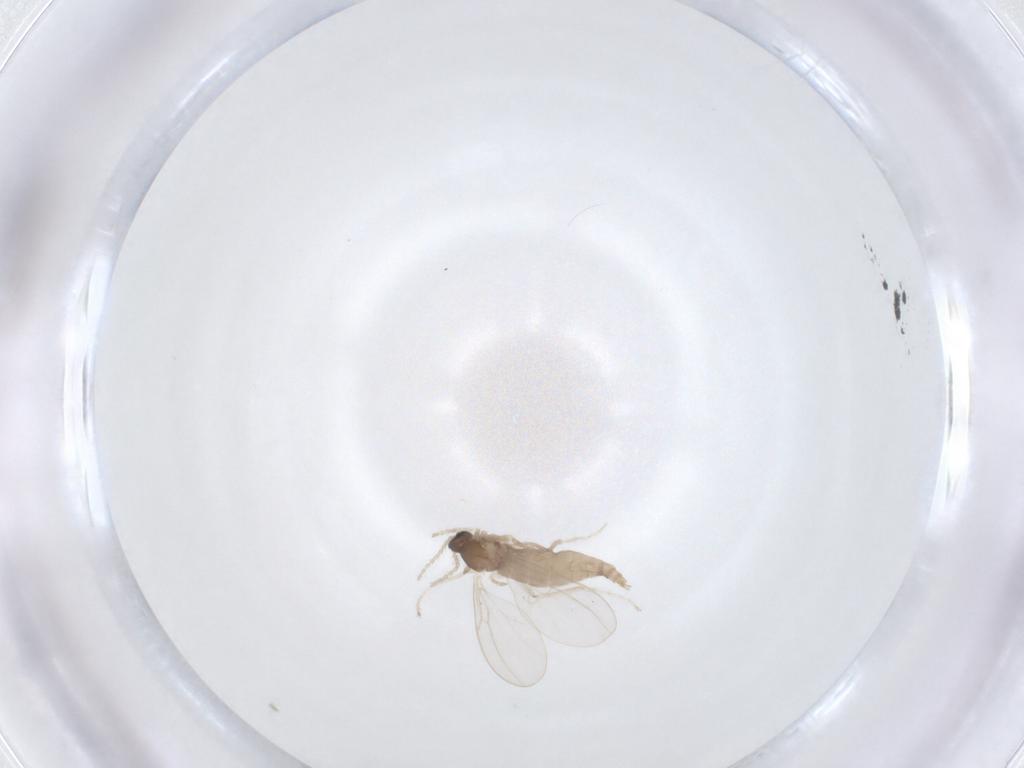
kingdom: Animalia
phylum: Arthropoda
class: Insecta
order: Diptera
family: Cecidomyiidae
